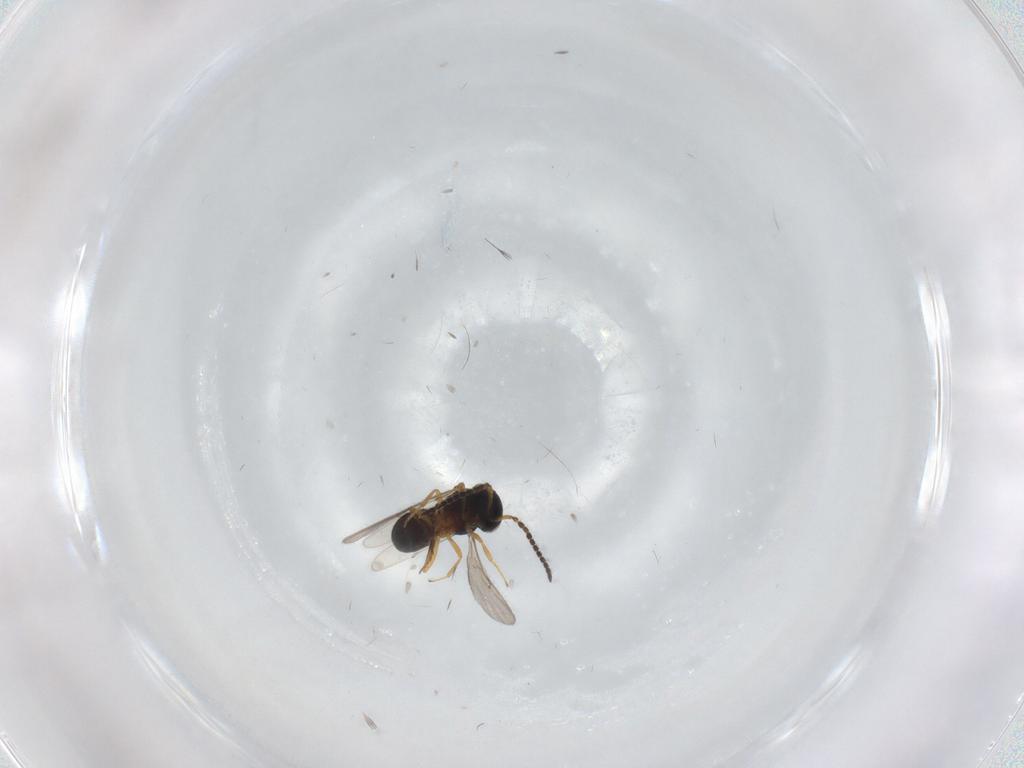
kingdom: Animalia
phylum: Arthropoda
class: Insecta
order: Hymenoptera
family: Scelionidae
